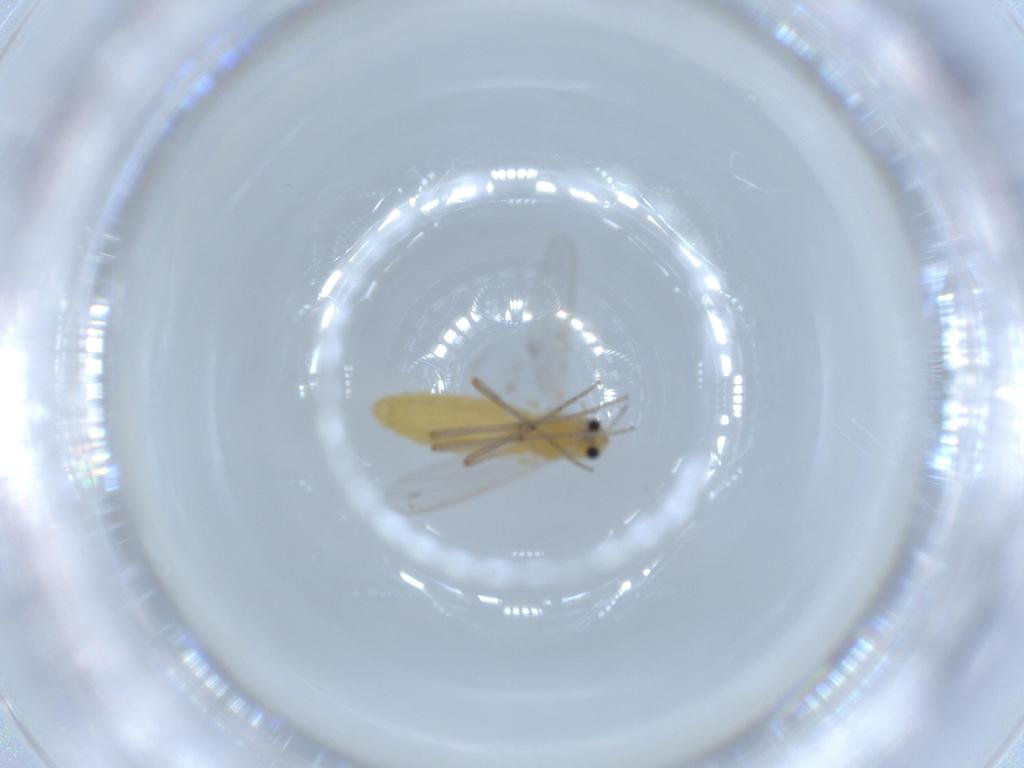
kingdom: Animalia
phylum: Arthropoda
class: Insecta
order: Diptera
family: Chironomidae
